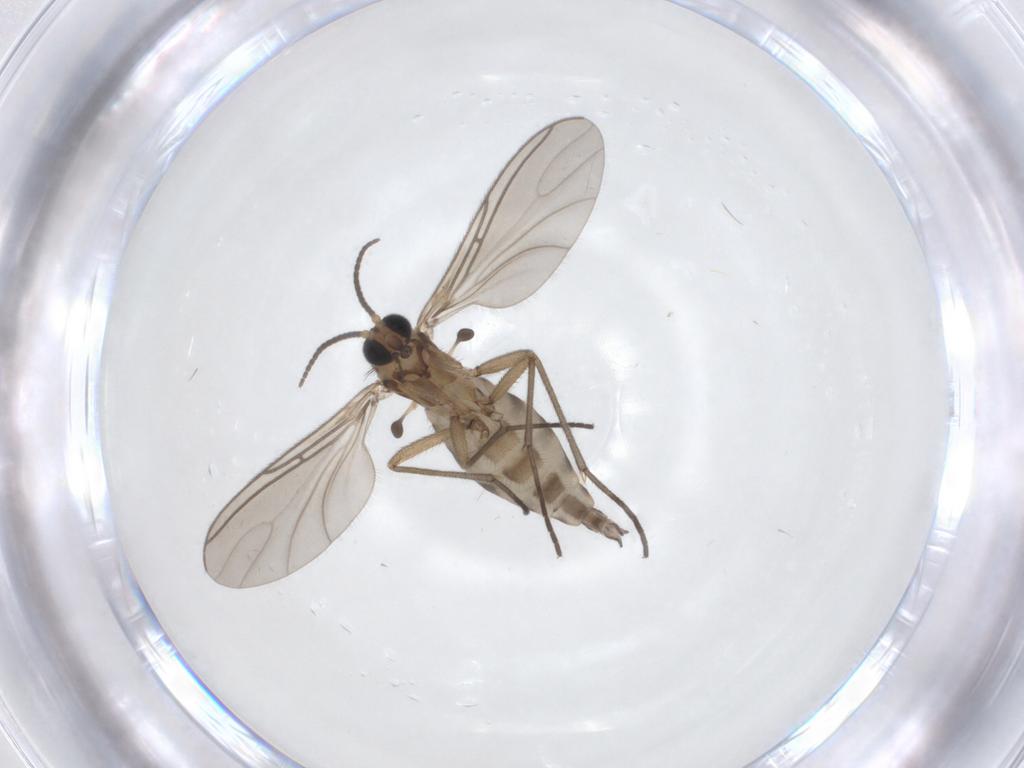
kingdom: Animalia
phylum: Arthropoda
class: Insecta
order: Diptera
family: Sciaridae
